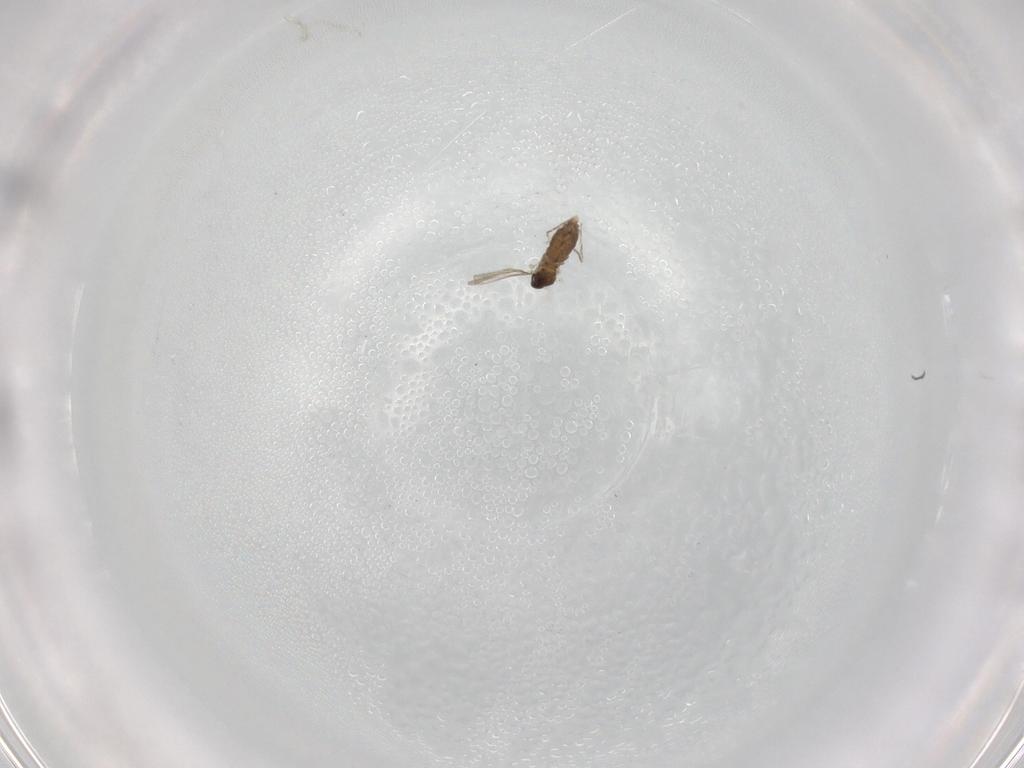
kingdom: Animalia
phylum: Arthropoda
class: Insecta
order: Diptera
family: Cecidomyiidae
